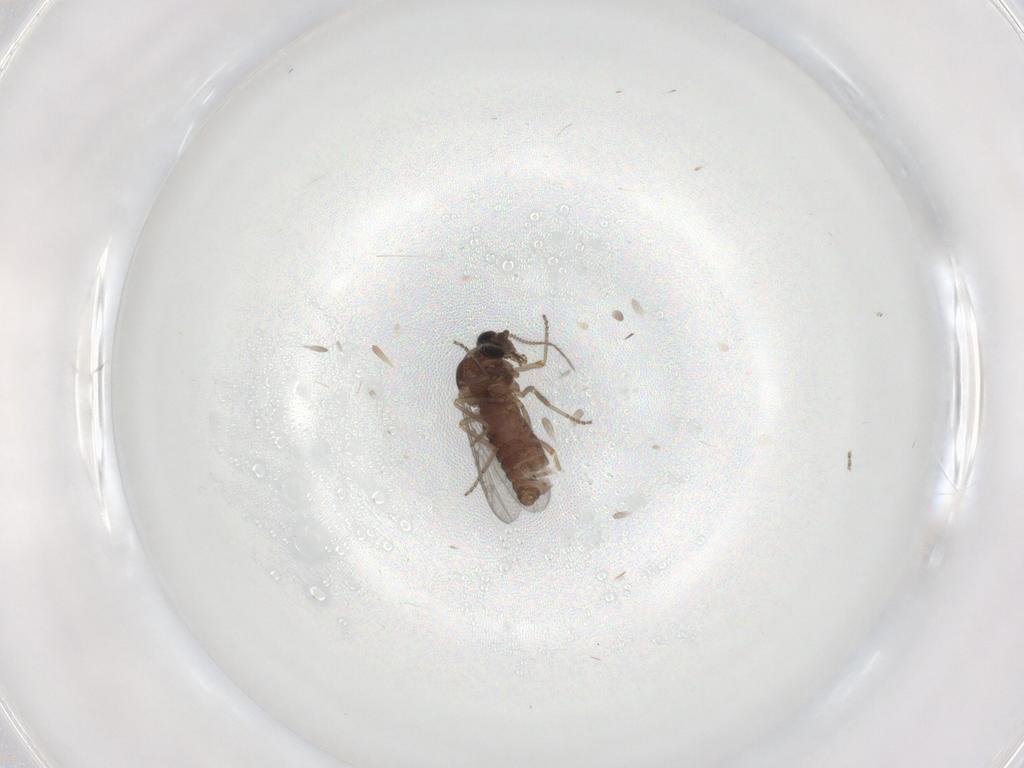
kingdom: Animalia
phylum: Arthropoda
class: Insecta
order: Diptera
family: Ceratopogonidae
